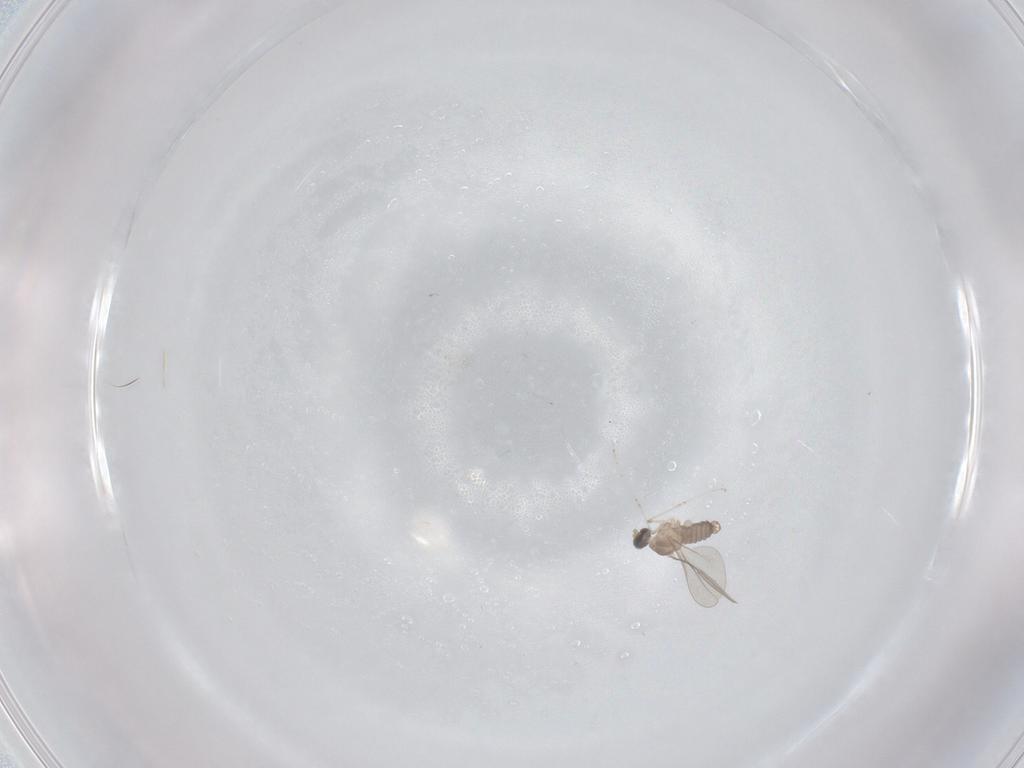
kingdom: Animalia
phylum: Arthropoda
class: Insecta
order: Diptera
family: Cecidomyiidae
